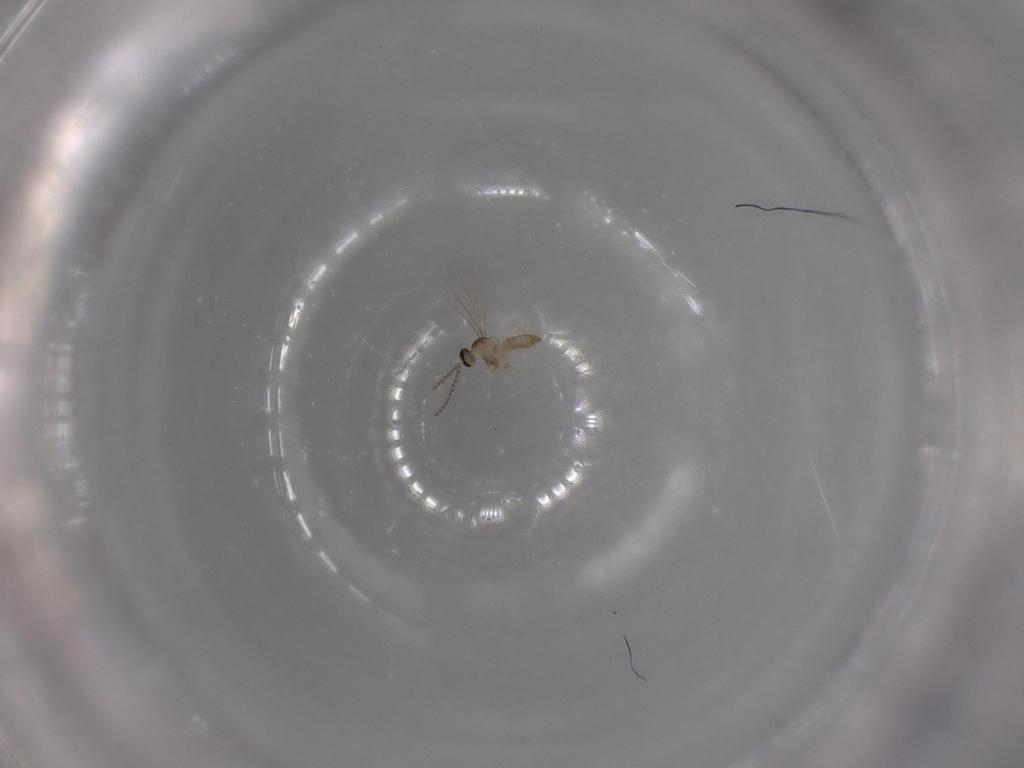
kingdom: Animalia
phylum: Arthropoda
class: Insecta
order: Diptera
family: Cecidomyiidae
